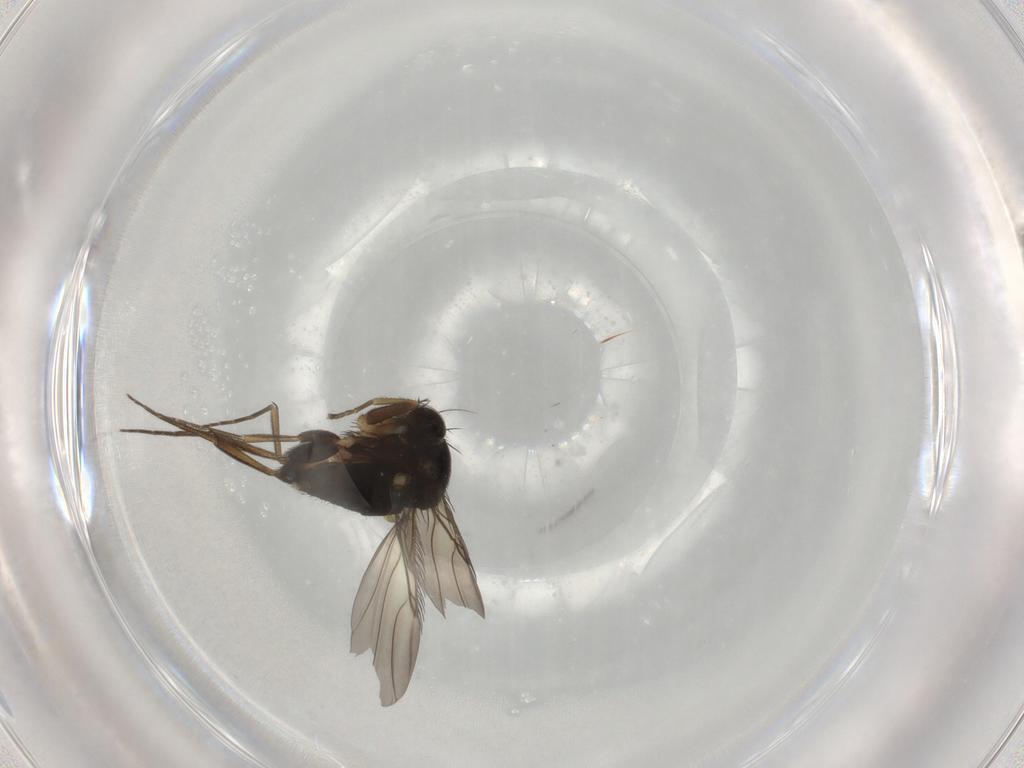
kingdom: Animalia
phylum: Arthropoda
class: Insecta
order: Diptera
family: Phoridae
